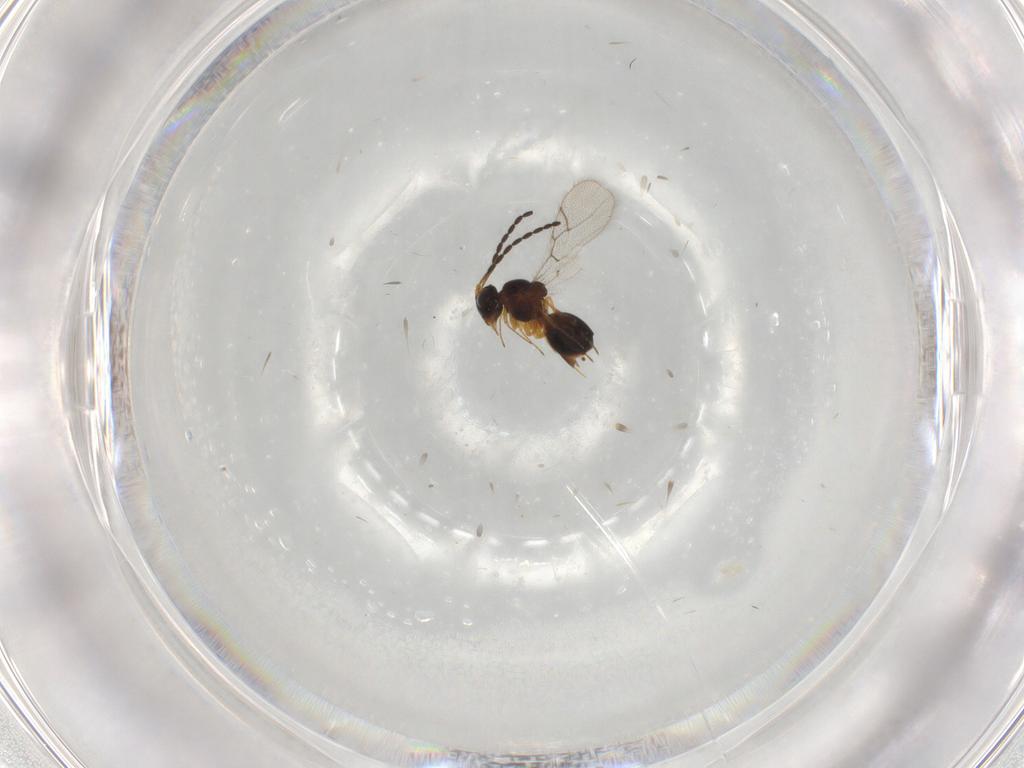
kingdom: Animalia
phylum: Arthropoda
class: Insecta
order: Hymenoptera
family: Figitidae
